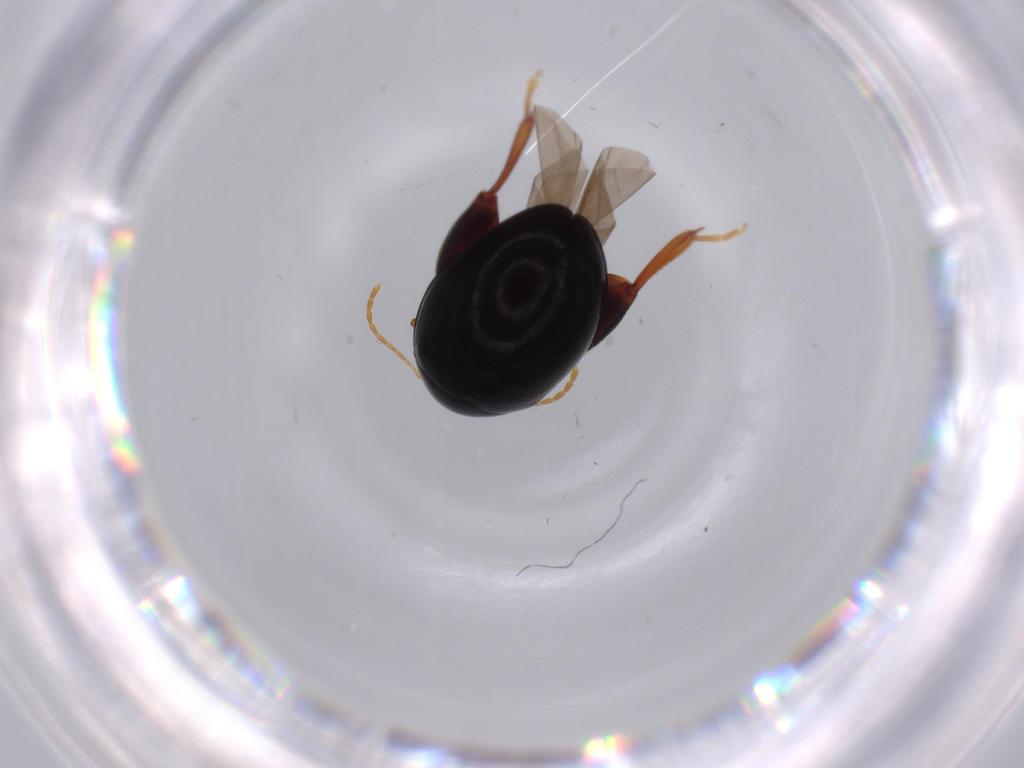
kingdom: Animalia
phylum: Arthropoda
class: Insecta
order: Coleoptera
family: Chrysomelidae
